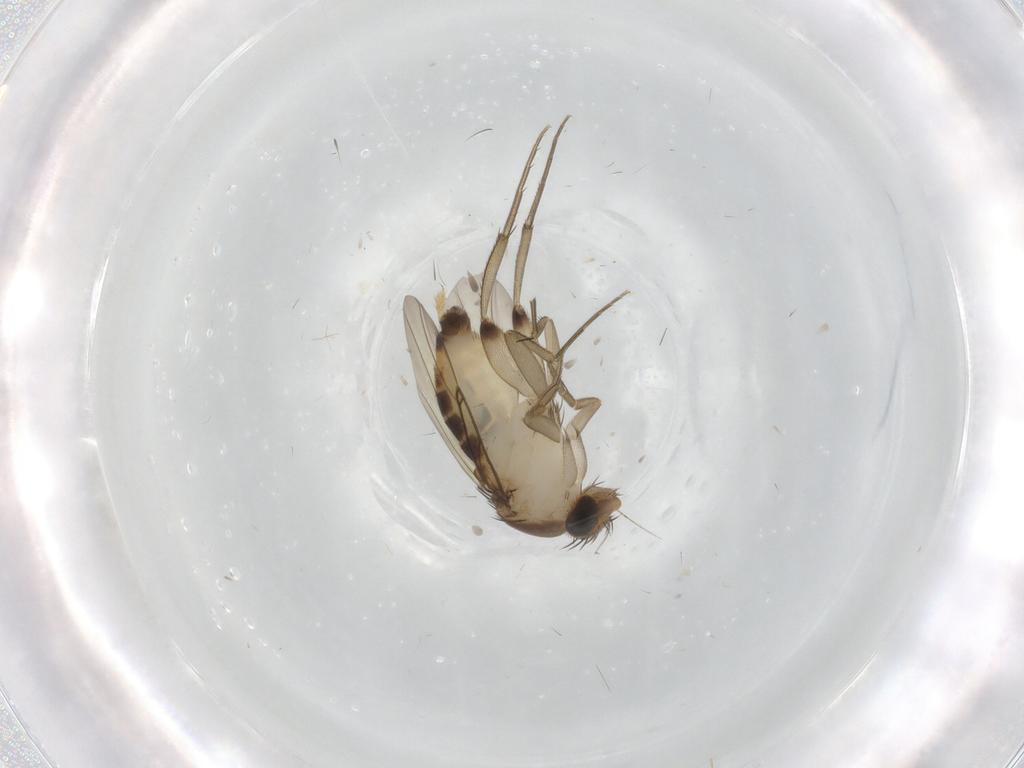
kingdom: Animalia
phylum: Arthropoda
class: Insecta
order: Diptera
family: Phoridae
